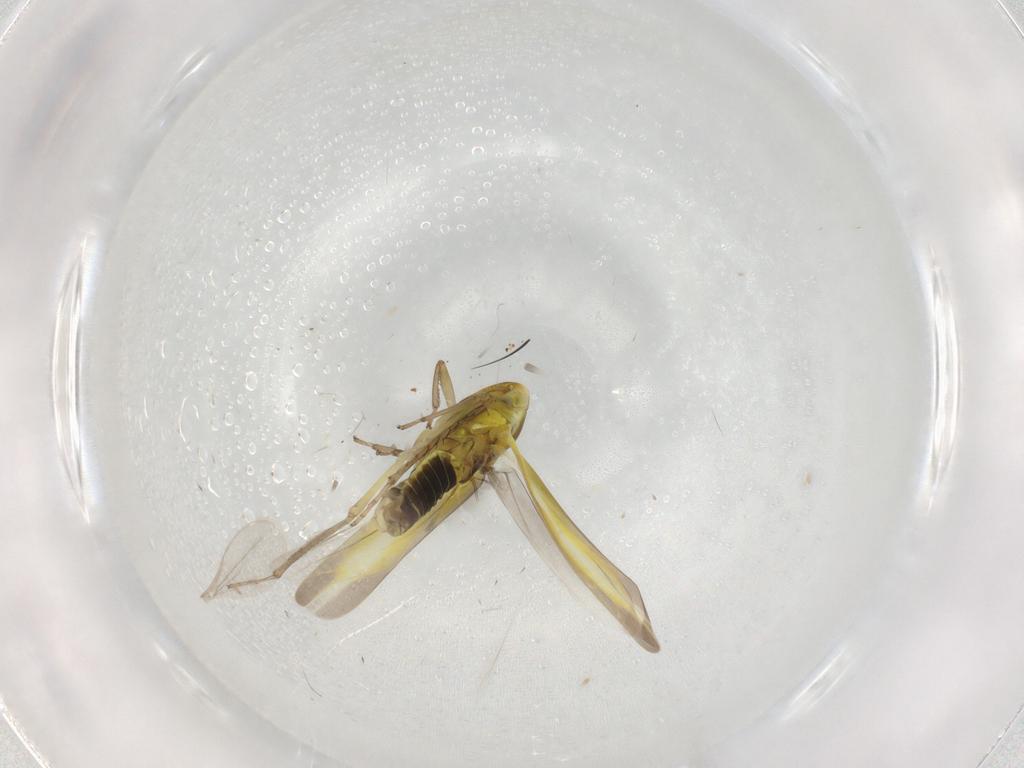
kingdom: Animalia
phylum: Arthropoda
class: Insecta
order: Hemiptera
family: Cicadellidae
